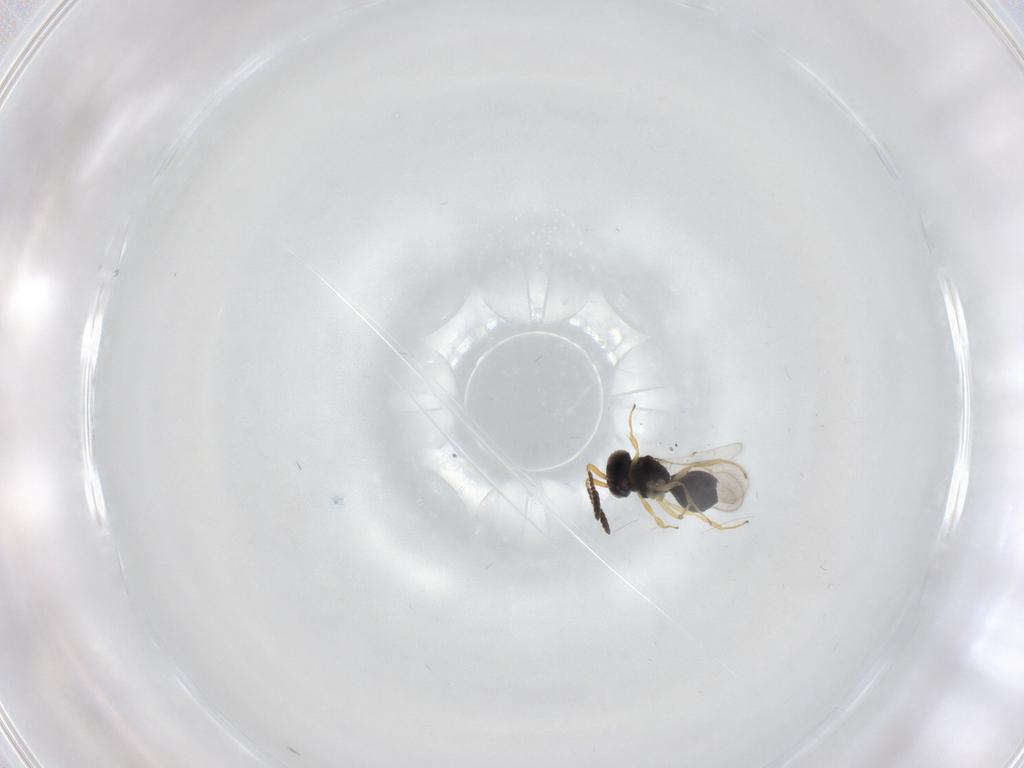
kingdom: Animalia
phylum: Arthropoda
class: Insecta
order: Hymenoptera
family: Scelionidae
